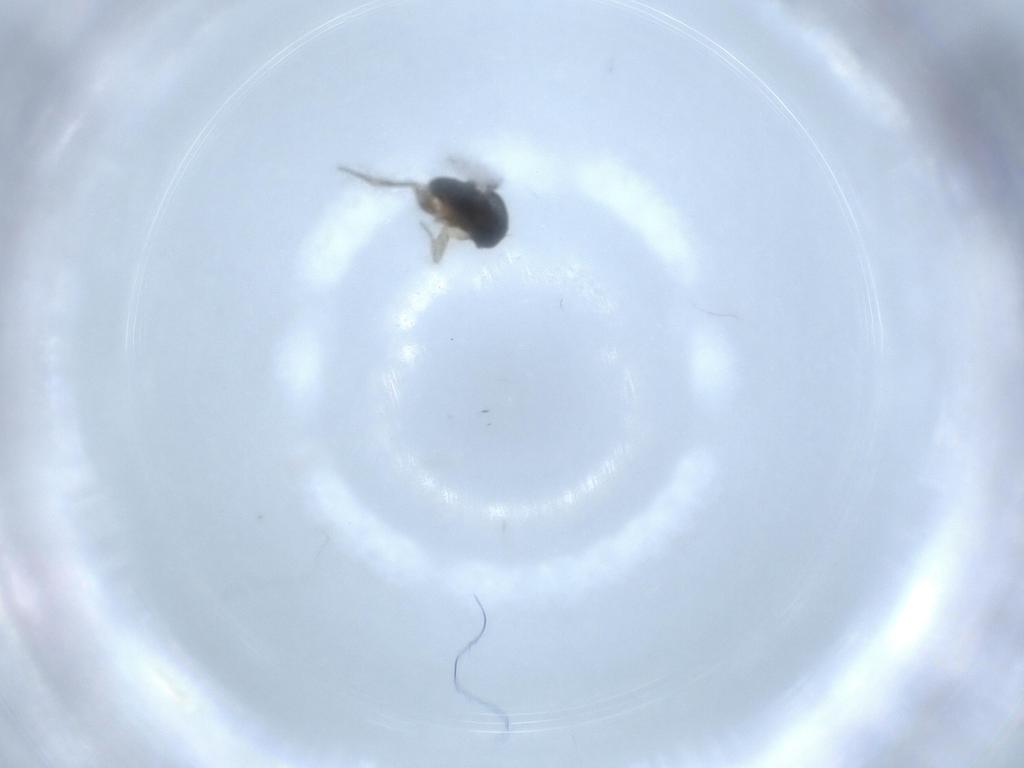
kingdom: Animalia
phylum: Arthropoda
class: Insecta
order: Diptera
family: Phoridae
